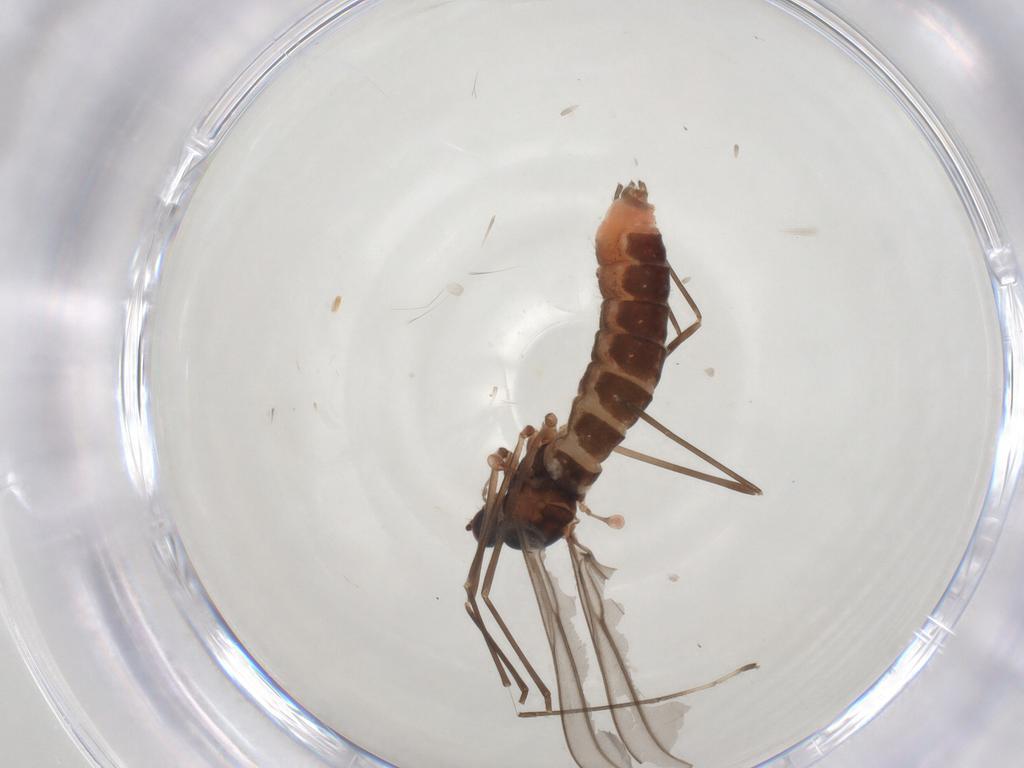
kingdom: Animalia
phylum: Arthropoda
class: Insecta
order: Diptera
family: Cecidomyiidae
